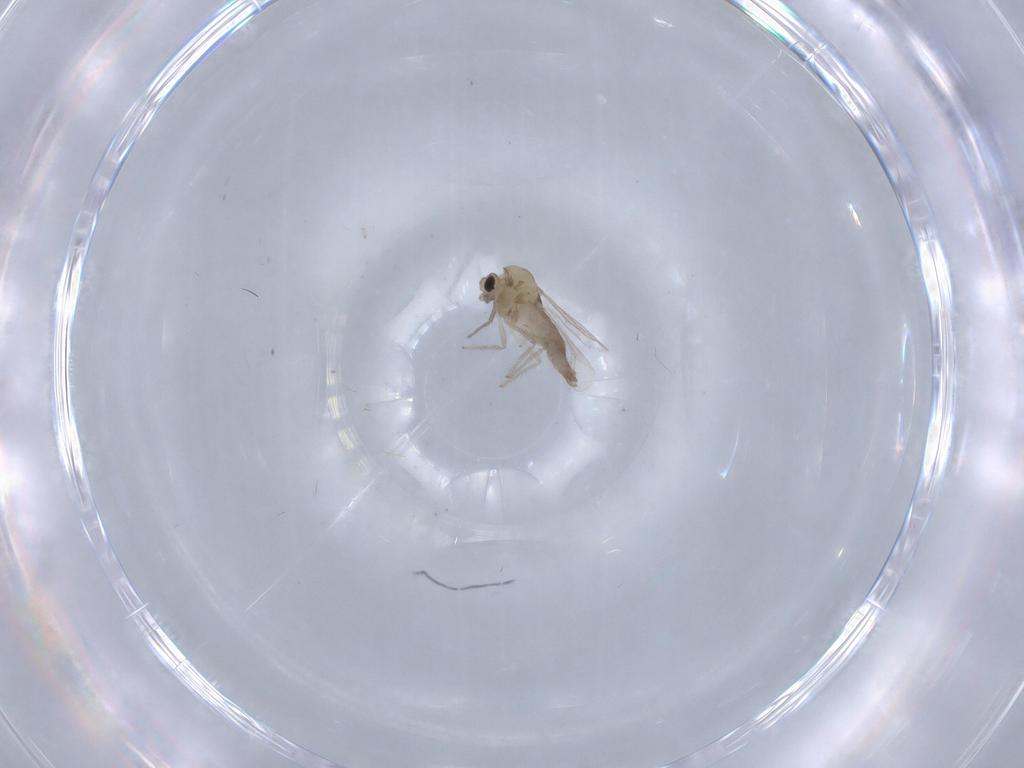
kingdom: Animalia
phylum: Arthropoda
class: Insecta
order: Diptera
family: Chironomidae
